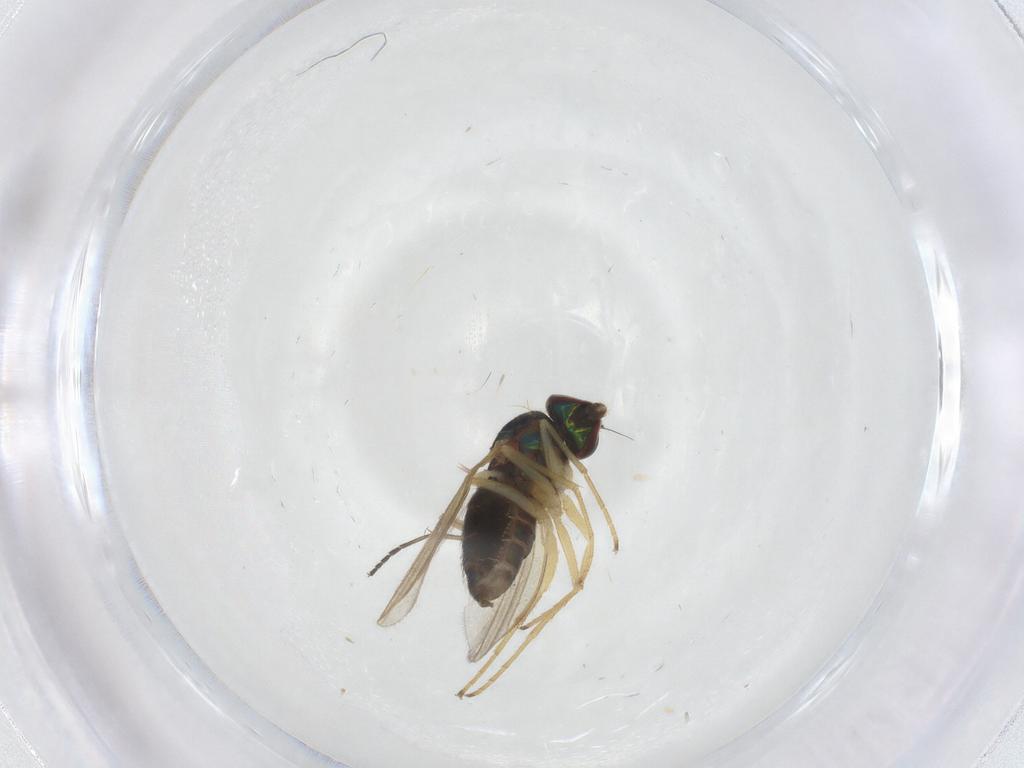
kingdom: Animalia
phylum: Arthropoda
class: Insecta
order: Diptera
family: Dolichopodidae
